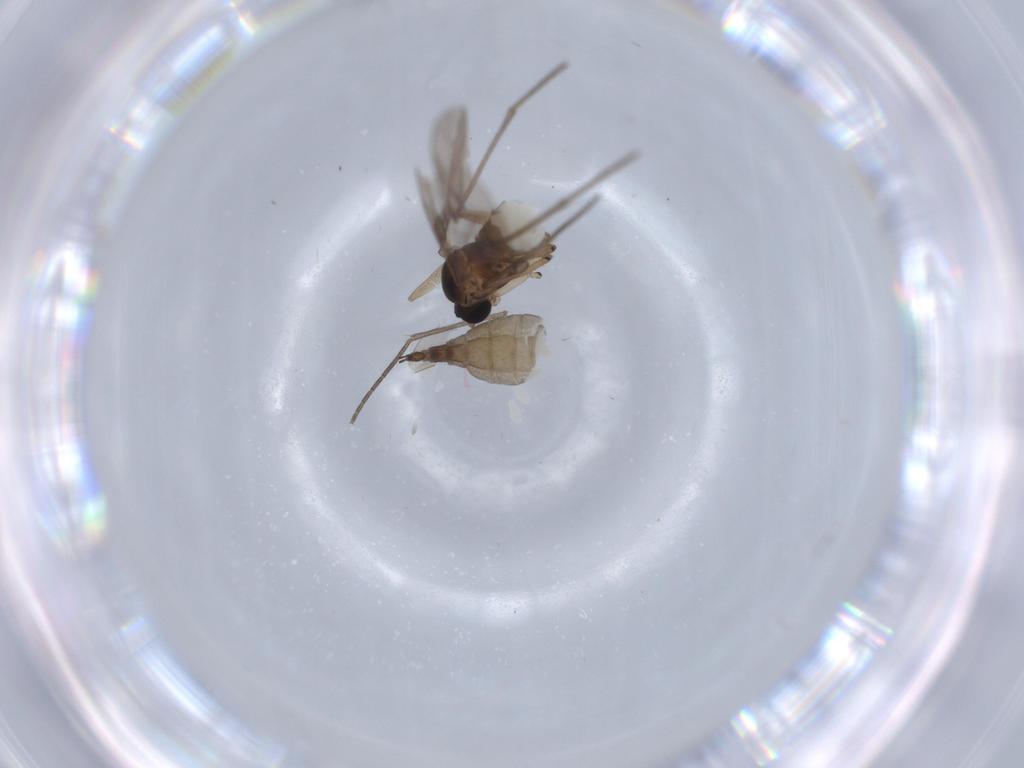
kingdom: Animalia
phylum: Arthropoda
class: Insecta
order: Diptera
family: Sciaridae
